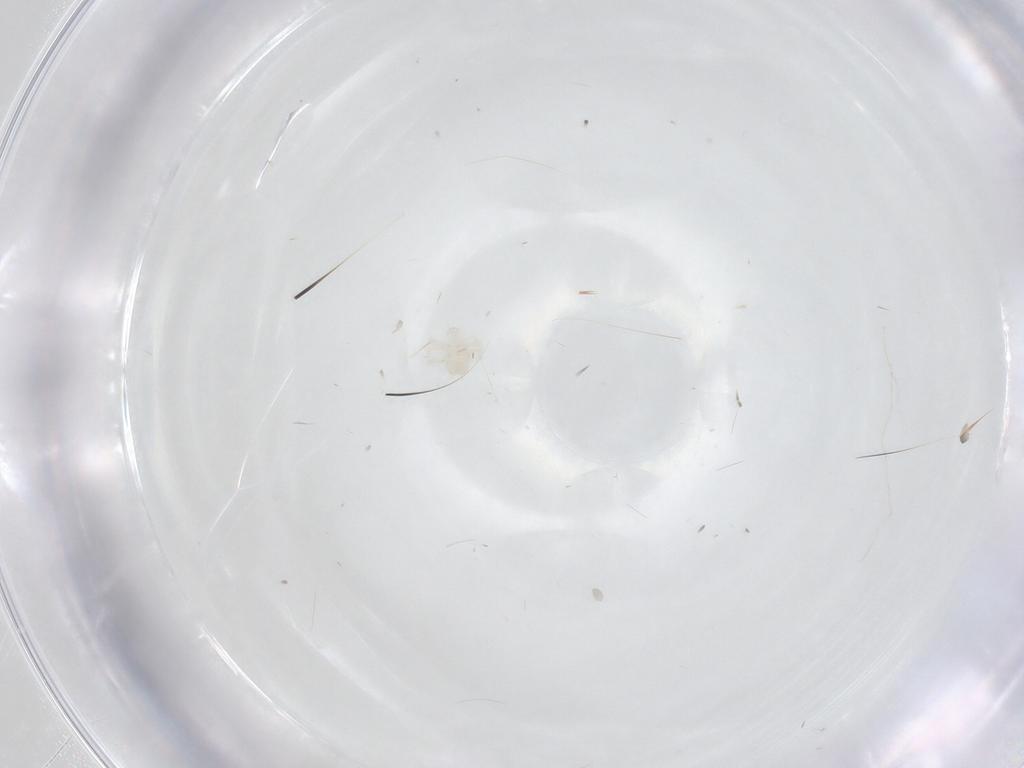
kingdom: Animalia
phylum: Arthropoda
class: Arachnida
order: Trombidiformes
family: Anystidae
